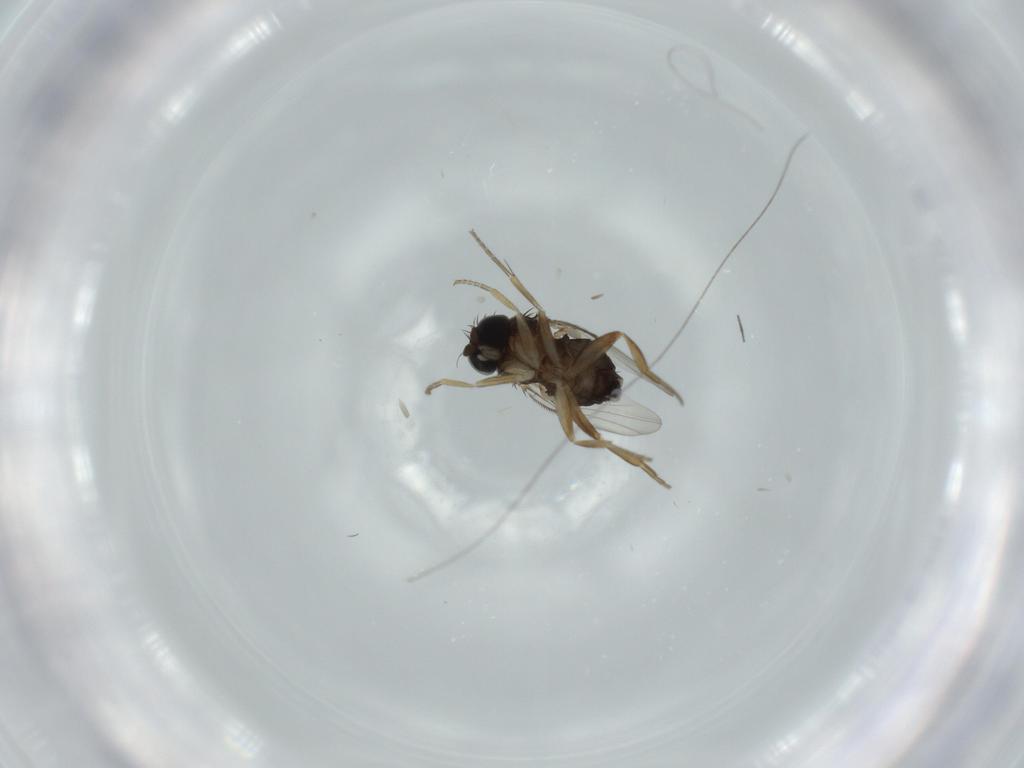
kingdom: Animalia
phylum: Arthropoda
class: Insecta
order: Diptera
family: Phoridae
